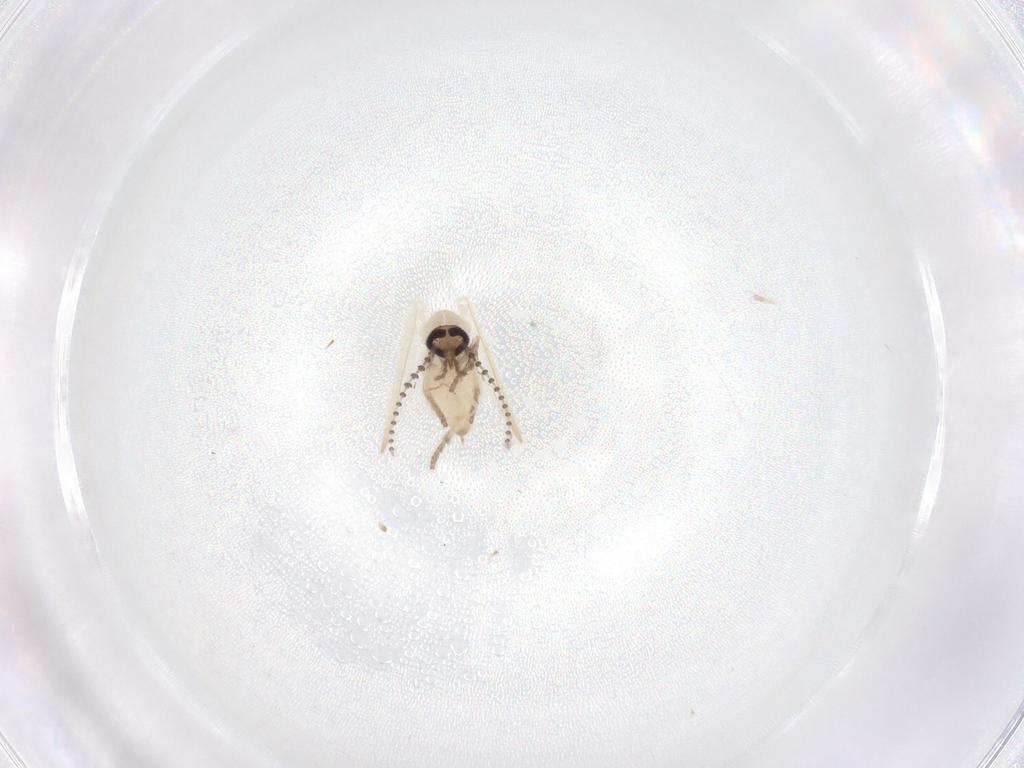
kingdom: Animalia
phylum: Arthropoda
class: Insecta
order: Diptera
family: Psychodidae
